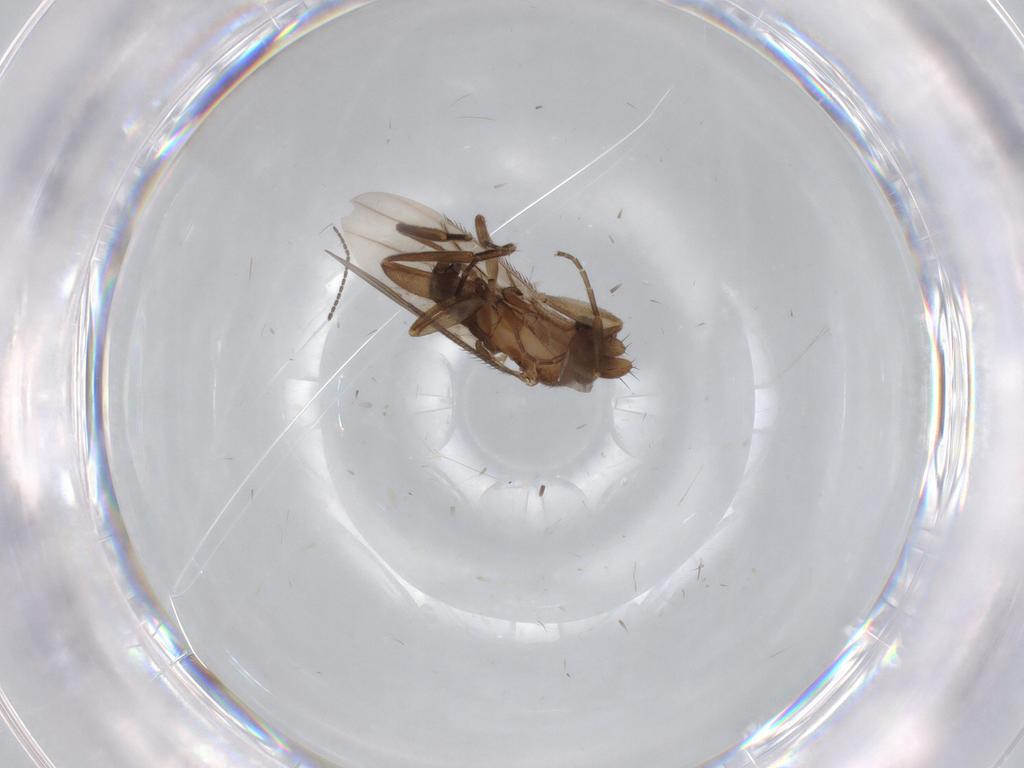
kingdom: Animalia
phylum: Arthropoda
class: Insecta
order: Diptera
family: Phoridae
